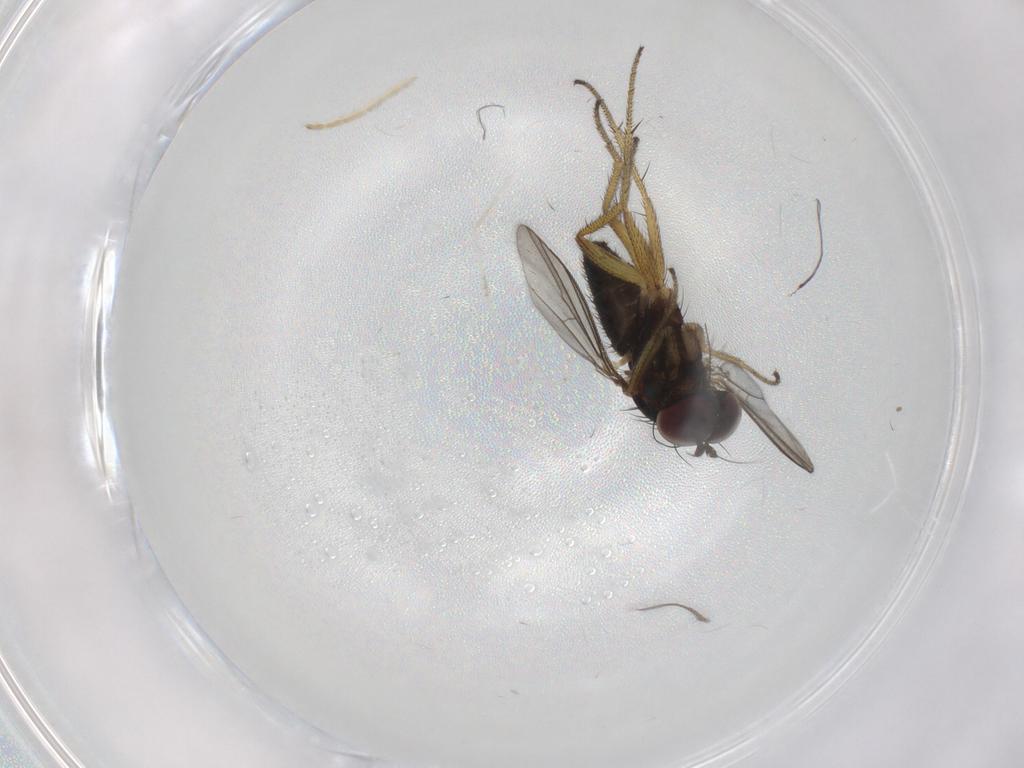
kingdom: Animalia
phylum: Arthropoda
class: Insecta
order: Diptera
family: Chironomidae
